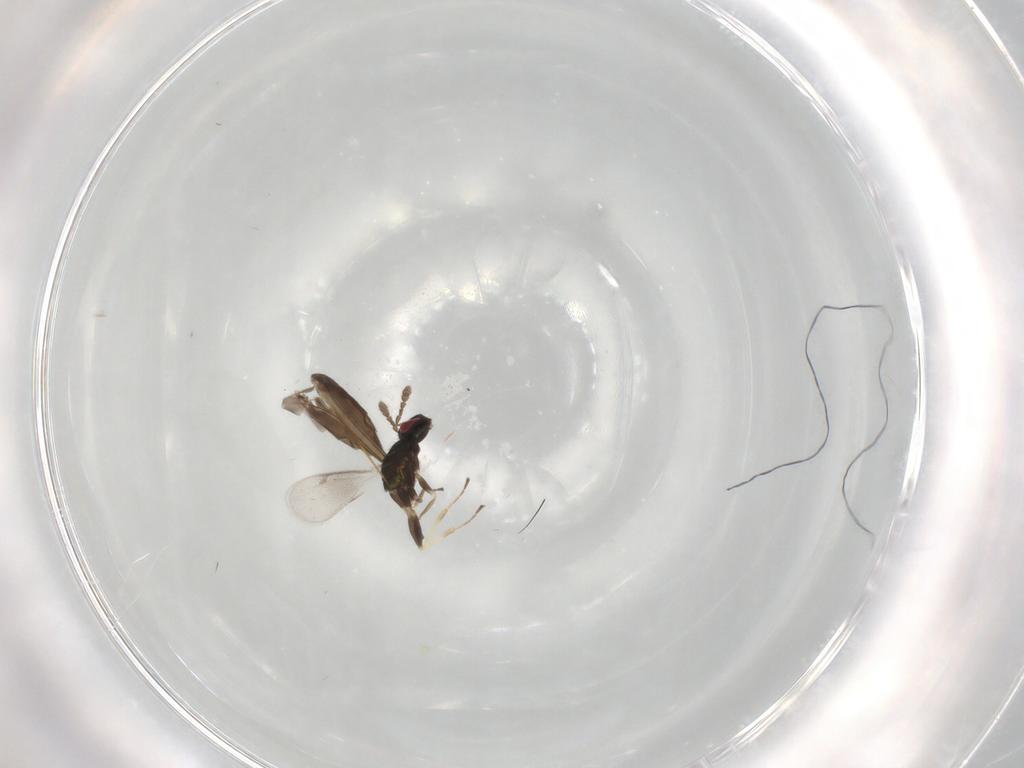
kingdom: Animalia
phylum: Arthropoda
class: Insecta
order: Hymenoptera
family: Eulophidae
